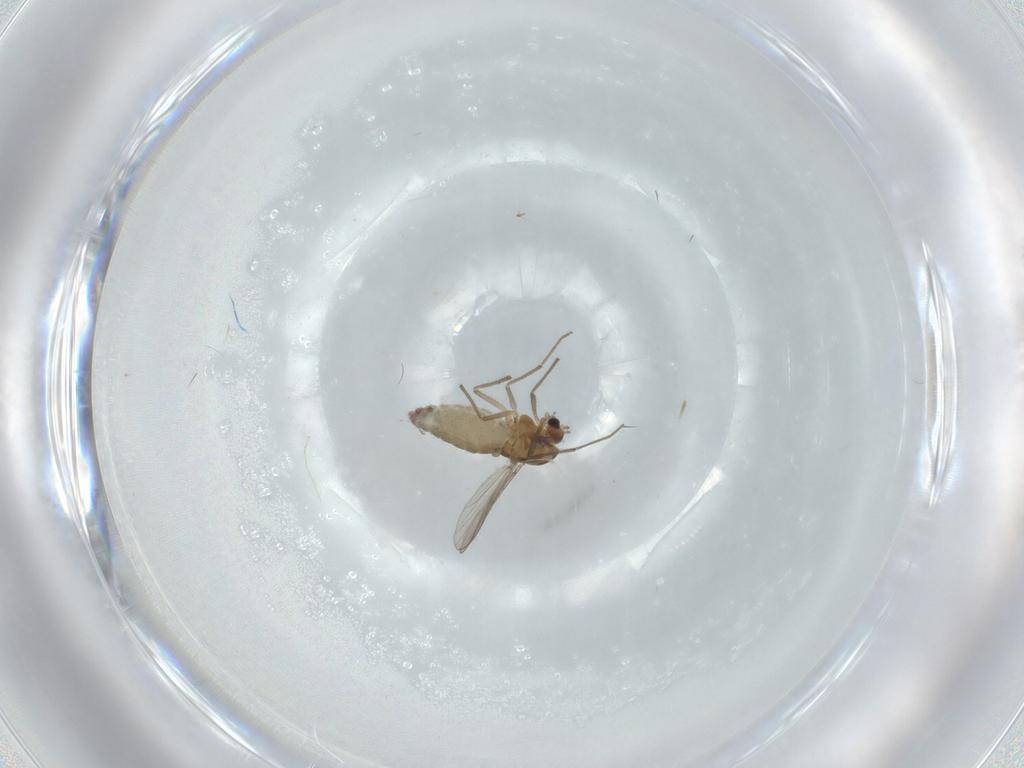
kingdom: Animalia
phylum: Arthropoda
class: Insecta
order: Diptera
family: Chironomidae
